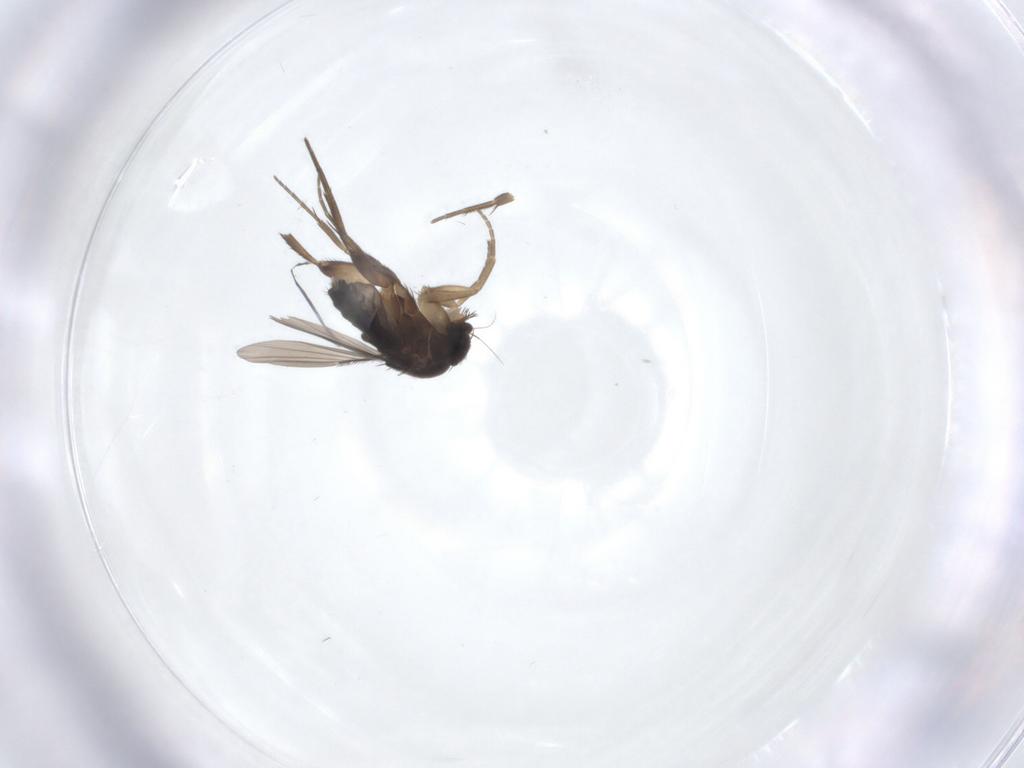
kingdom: Animalia
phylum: Arthropoda
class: Insecta
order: Diptera
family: Phoridae
